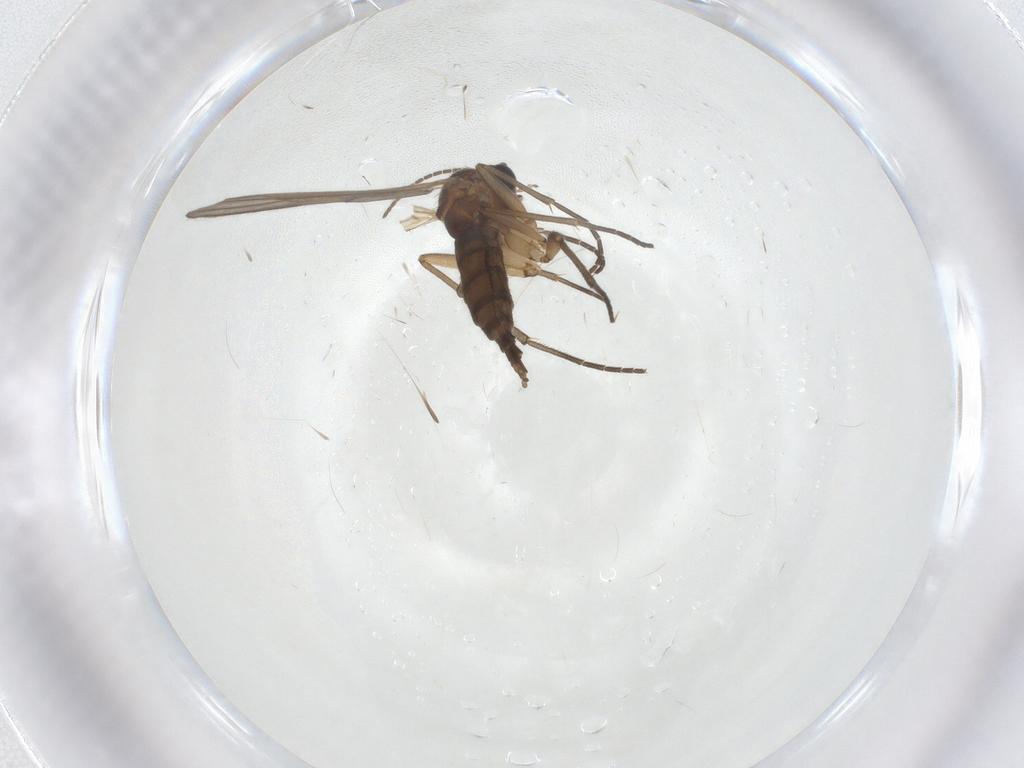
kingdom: Animalia
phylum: Arthropoda
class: Insecta
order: Diptera
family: Sciaridae
